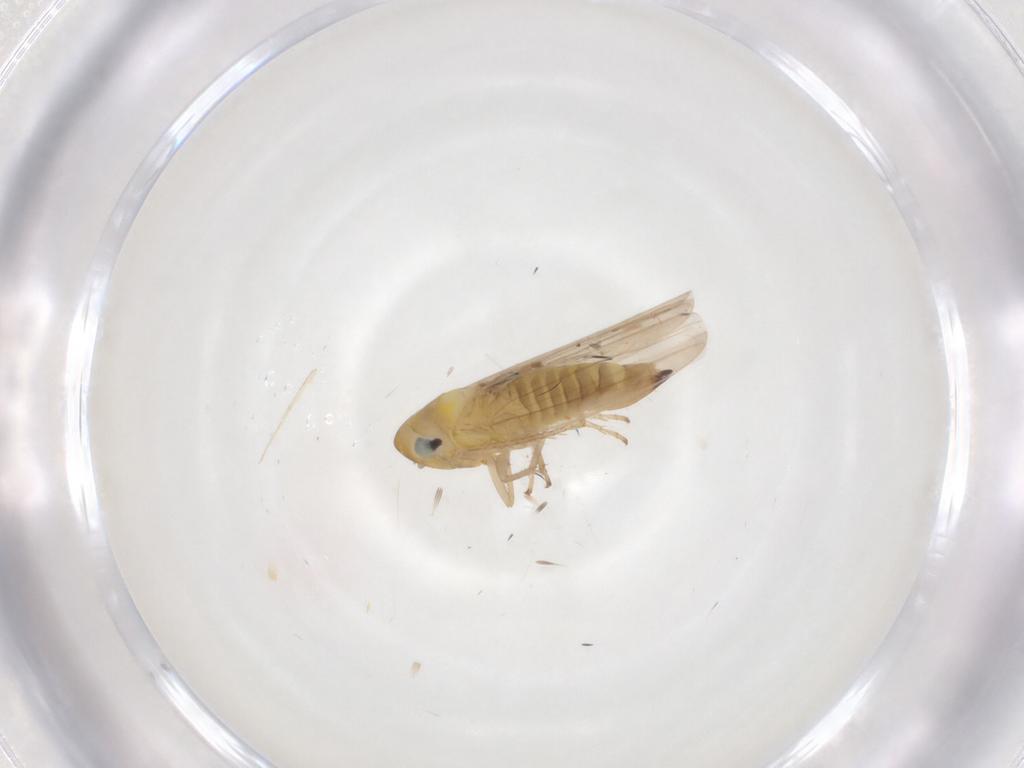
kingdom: Animalia
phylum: Arthropoda
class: Insecta
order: Hemiptera
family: Cicadellidae
